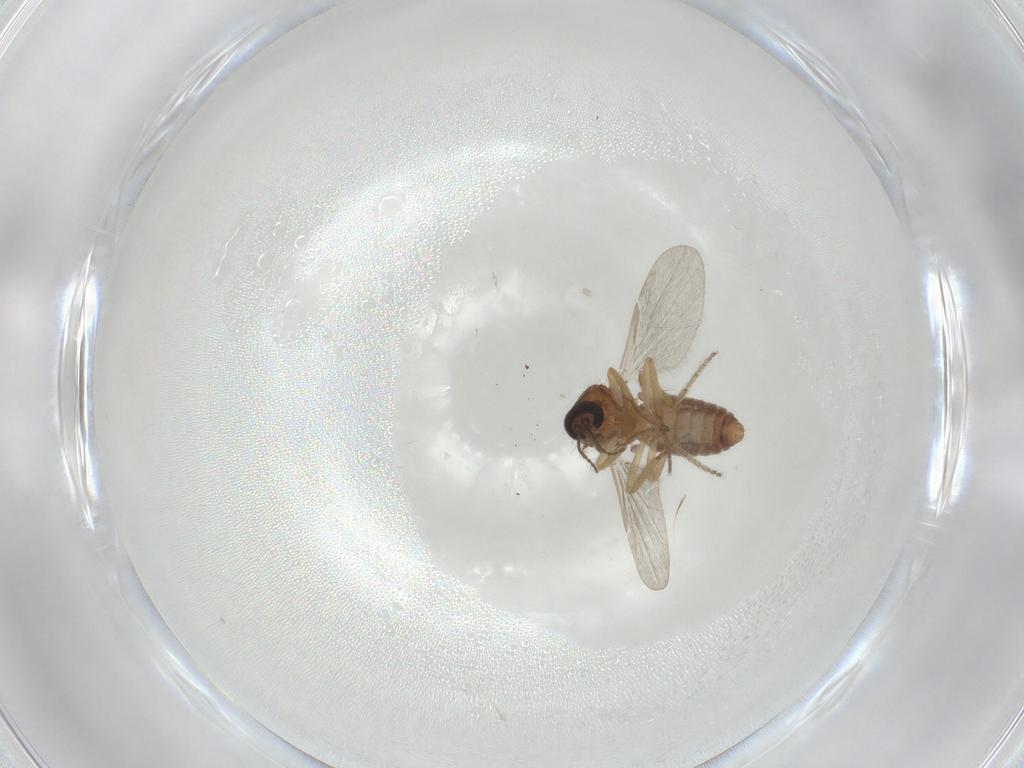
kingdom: Animalia
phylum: Arthropoda
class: Insecta
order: Diptera
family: Ceratopogonidae
